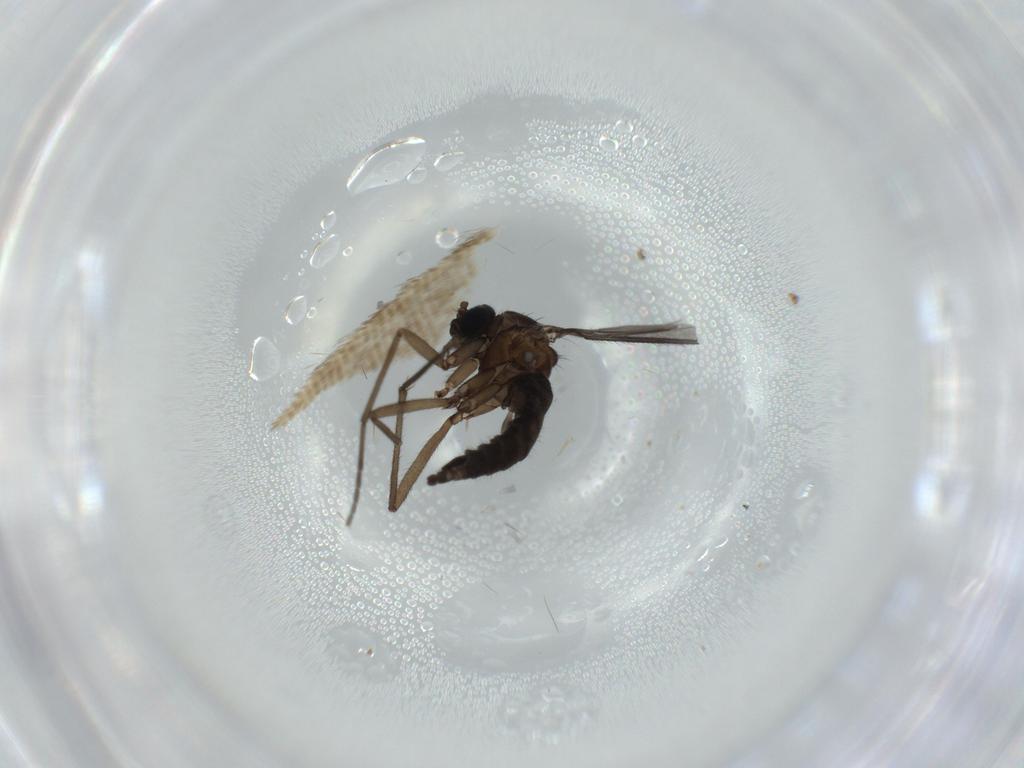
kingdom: Animalia
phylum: Arthropoda
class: Insecta
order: Diptera
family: Sciaridae
